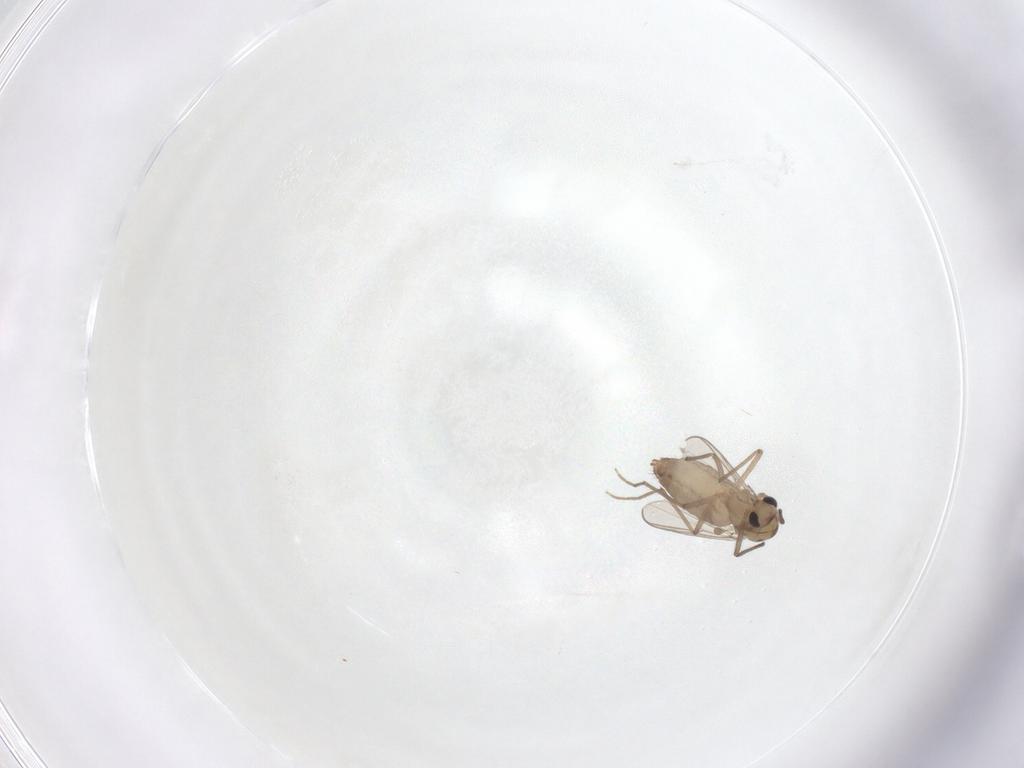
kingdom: Animalia
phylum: Arthropoda
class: Insecta
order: Diptera
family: Chironomidae
